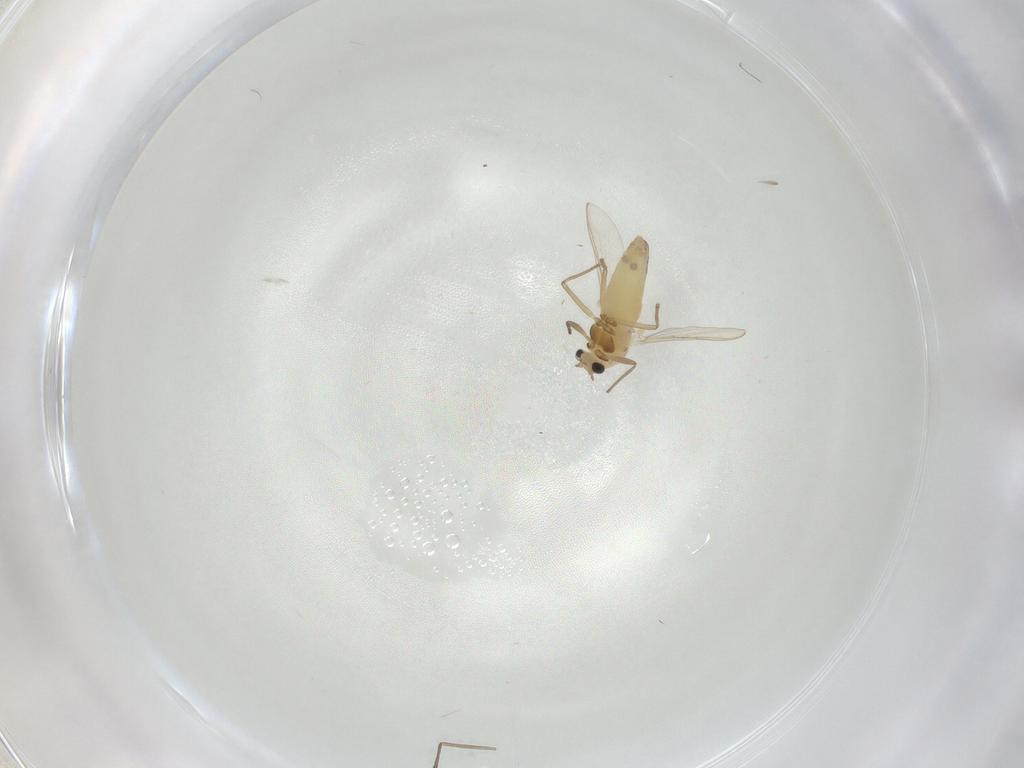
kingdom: Animalia
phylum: Arthropoda
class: Insecta
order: Diptera
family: Chironomidae
